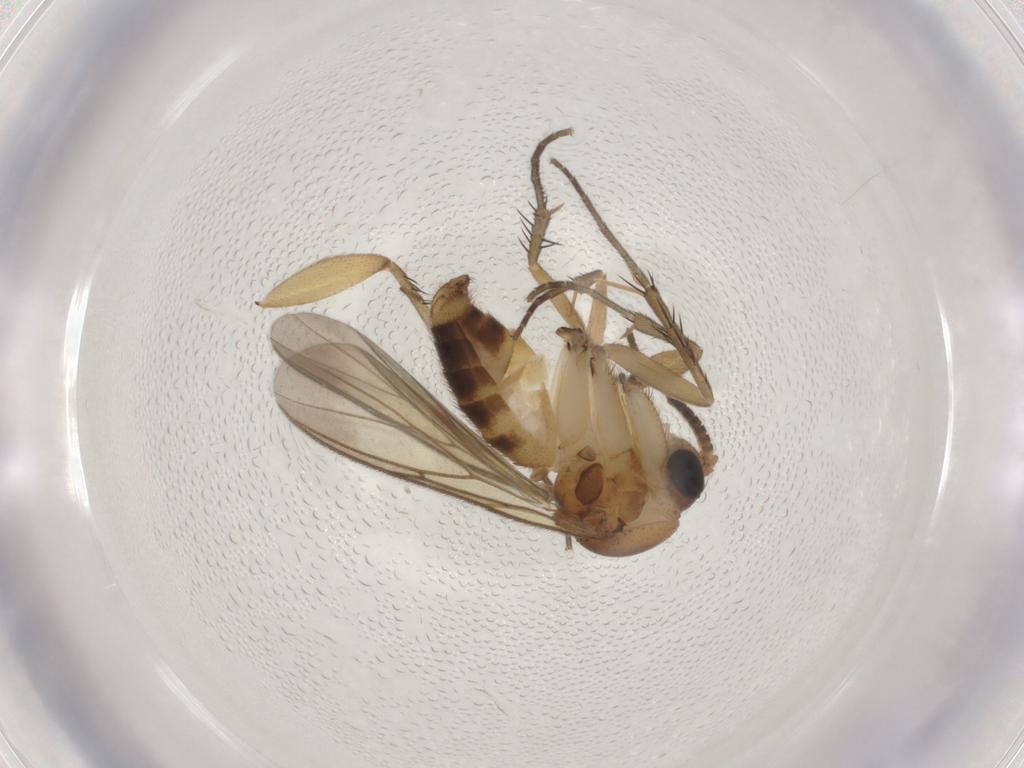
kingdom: Animalia
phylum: Arthropoda
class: Insecta
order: Diptera
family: Mycetophilidae
